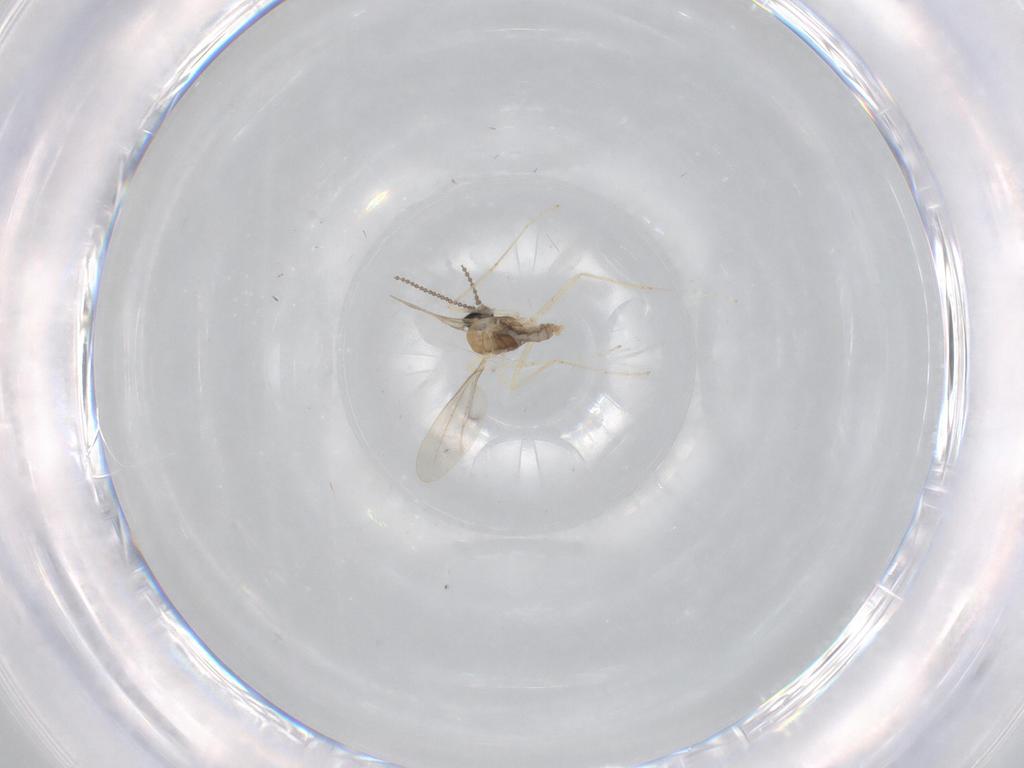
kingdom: Animalia
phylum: Arthropoda
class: Insecta
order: Diptera
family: Cecidomyiidae
